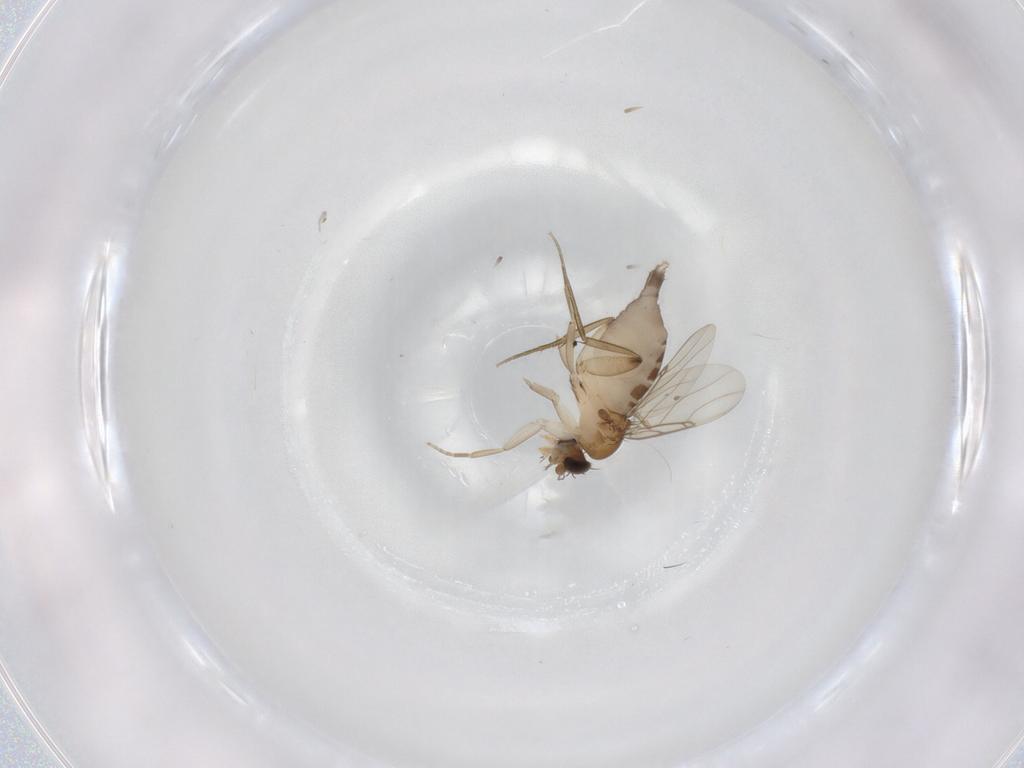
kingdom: Animalia
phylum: Arthropoda
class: Insecta
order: Diptera
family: Phoridae
